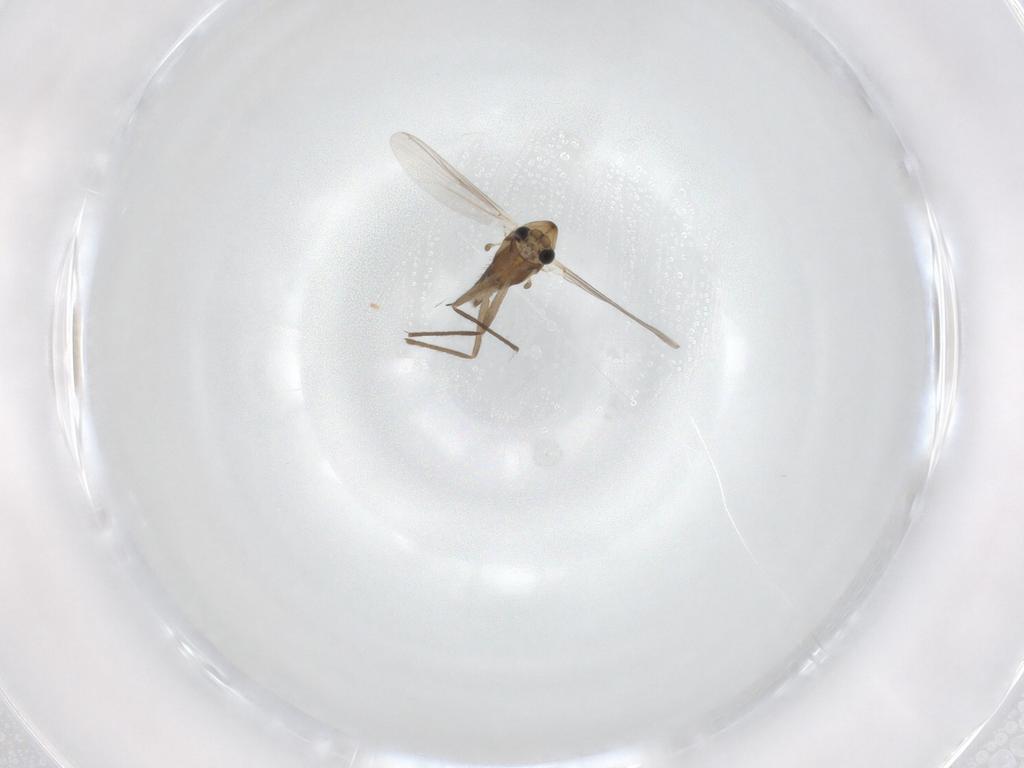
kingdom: Animalia
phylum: Arthropoda
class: Insecta
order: Diptera
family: Chironomidae
